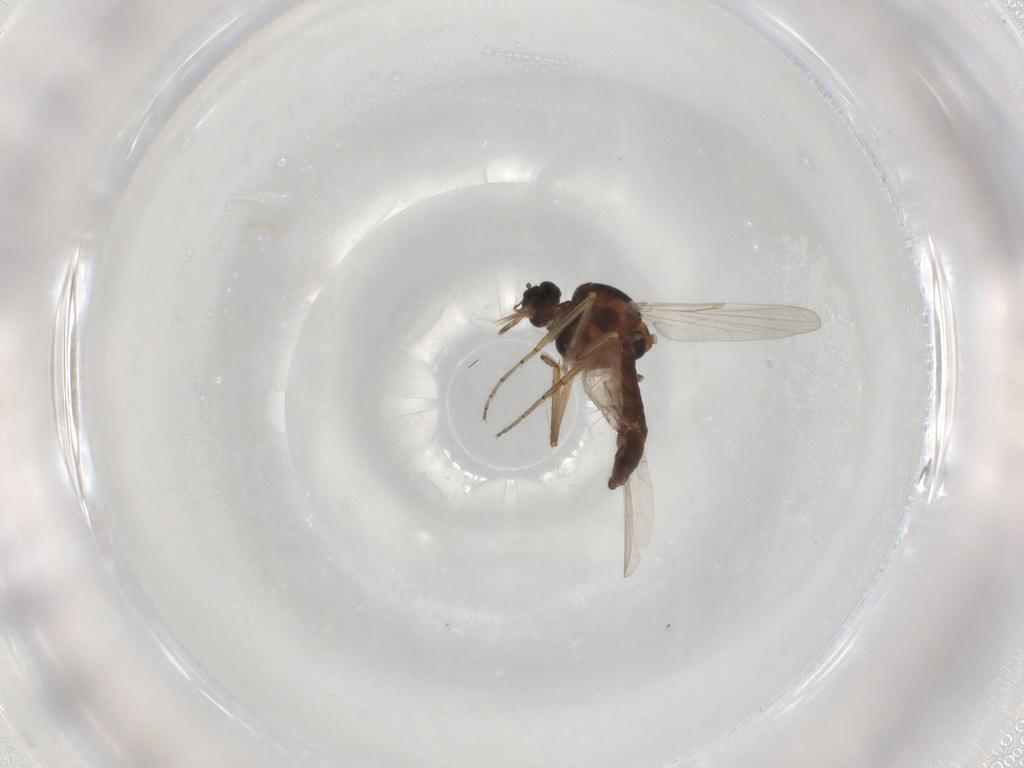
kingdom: Animalia
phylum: Arthropoda
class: Insecta
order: Diptera
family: Ceratopogonidae
